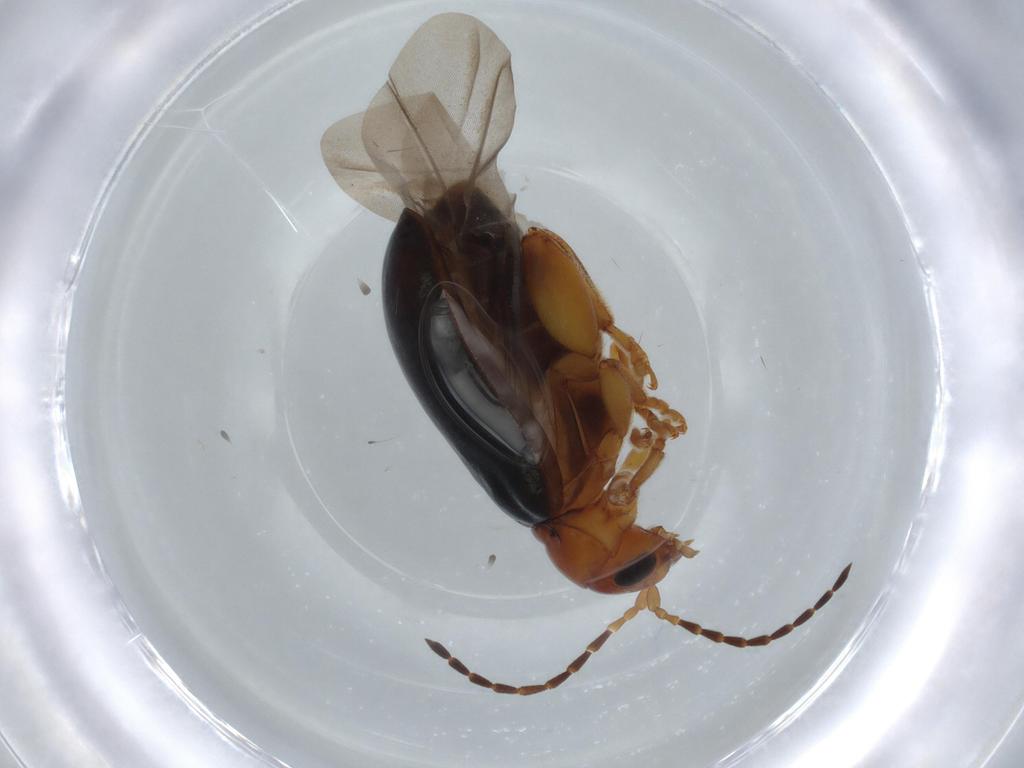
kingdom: Animalia
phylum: Arthropoda
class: Insecta
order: Coleoptera
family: Chrysomelidae
